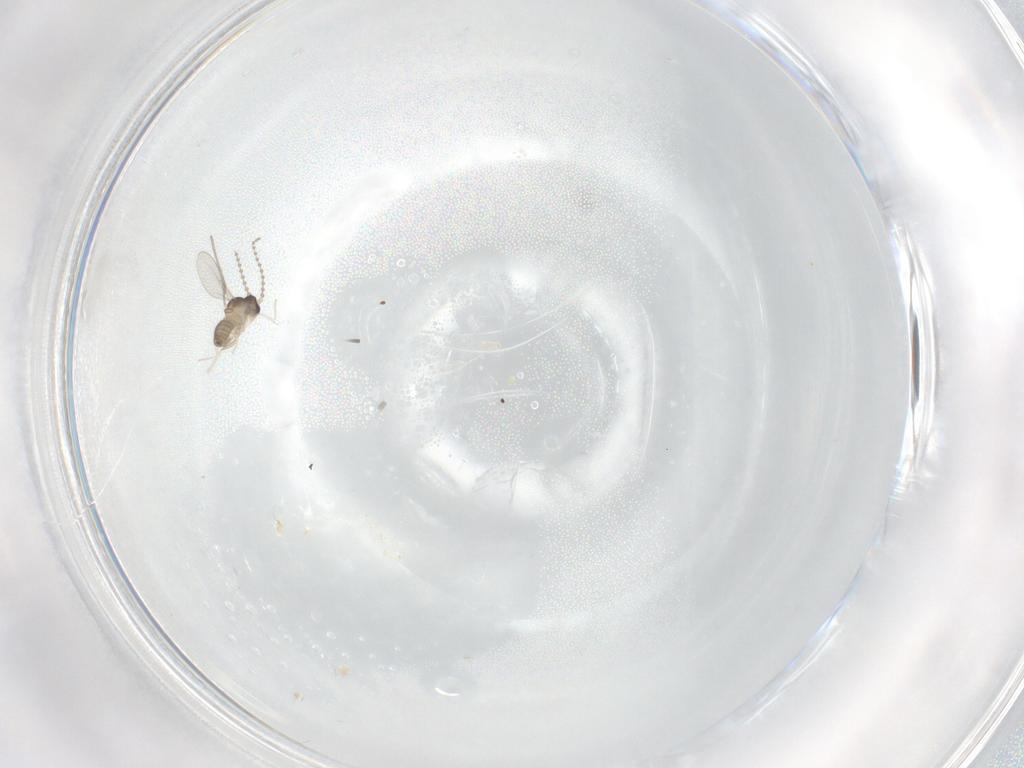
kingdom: Animalia
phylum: Arthropoda
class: Insecta
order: Diptera
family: Cecidomyiidae
